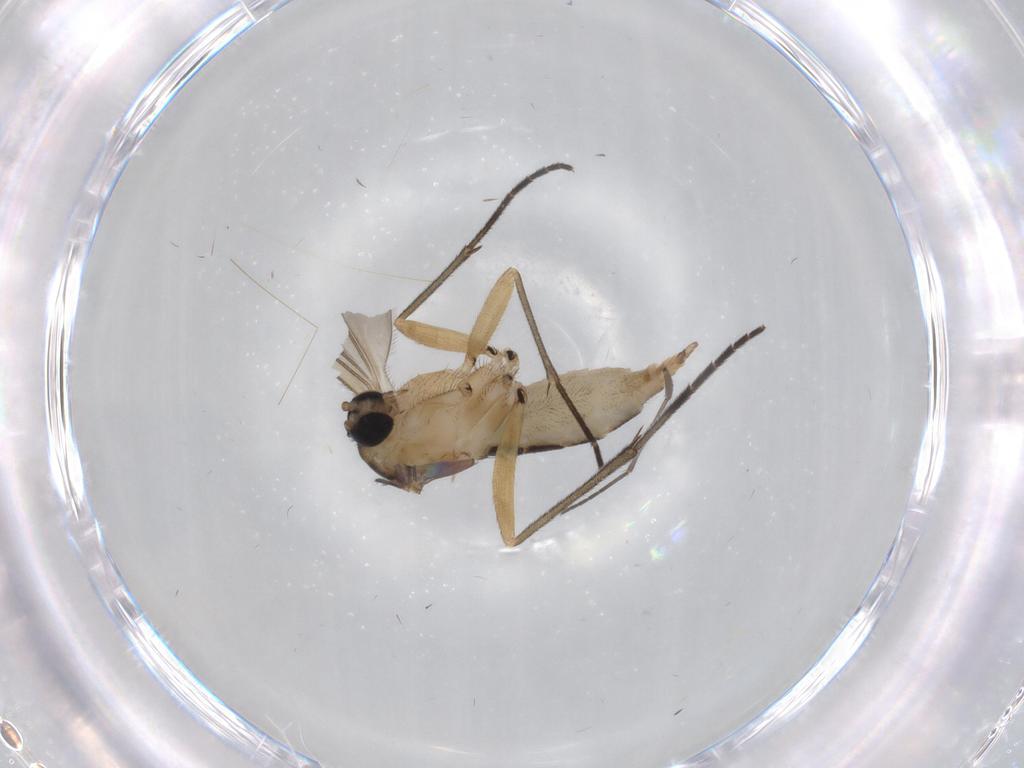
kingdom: Animalia
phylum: Arthropoda
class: Insecta
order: Diptera
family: Sciaridae
